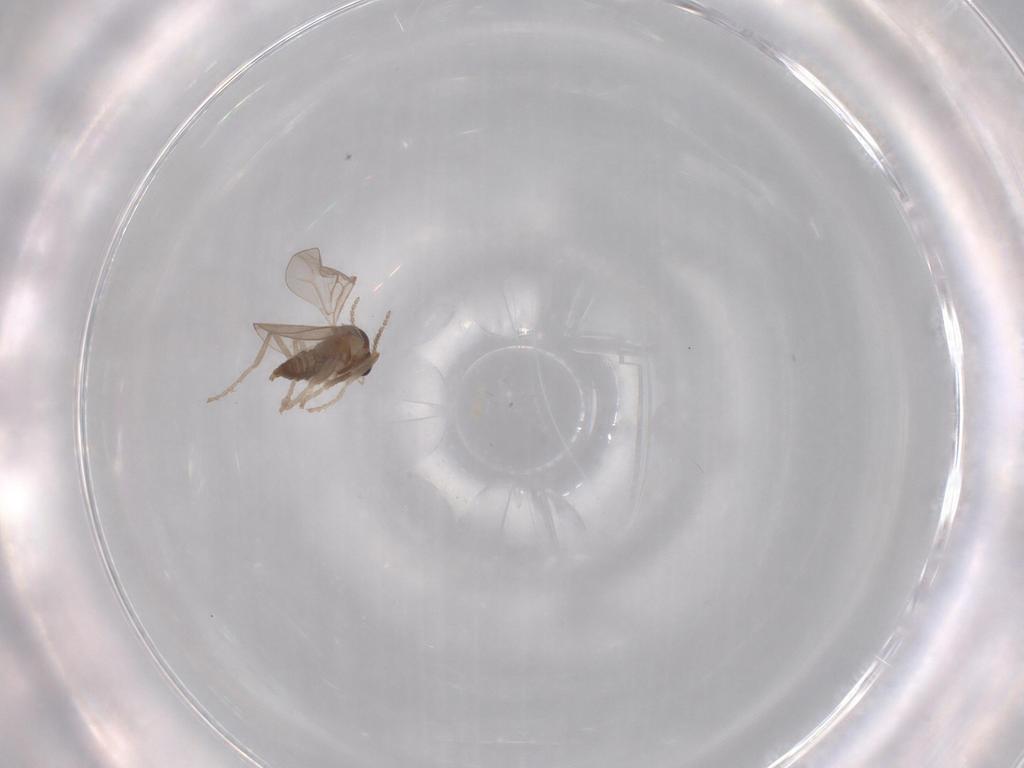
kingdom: Animalia
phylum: Arthropoda
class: Insecta
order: Diptera
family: Cecidomyiidae
